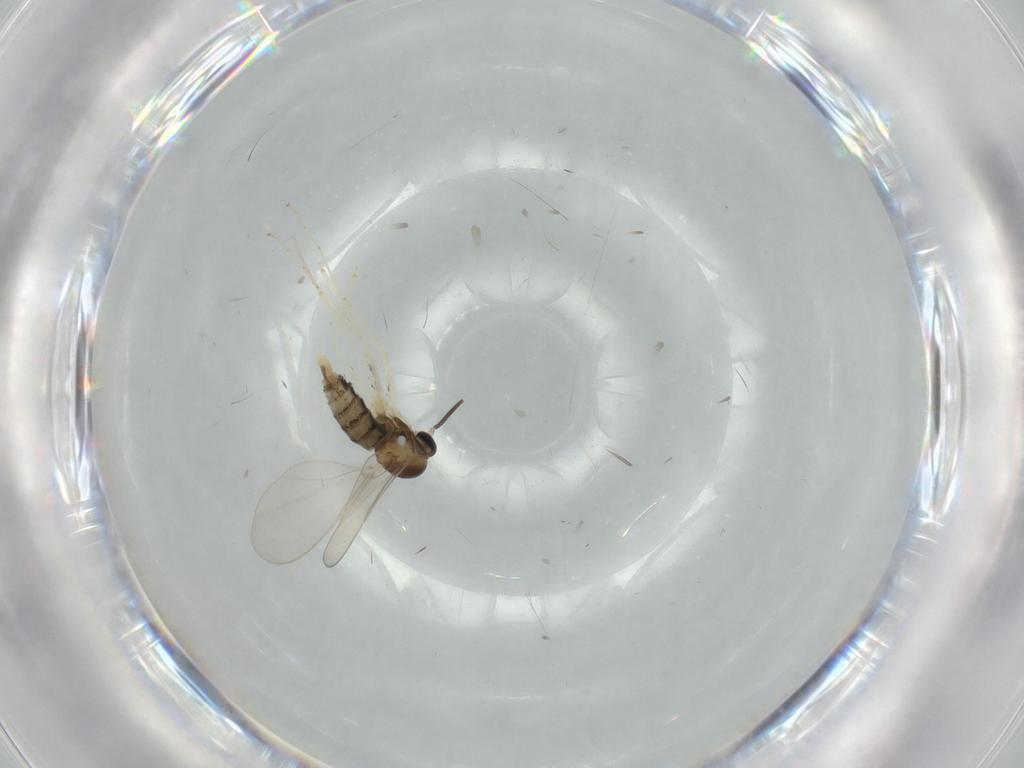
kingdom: Animalia
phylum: Arthropoda
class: Insecta
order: Diptera
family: Cecidomyiidae
